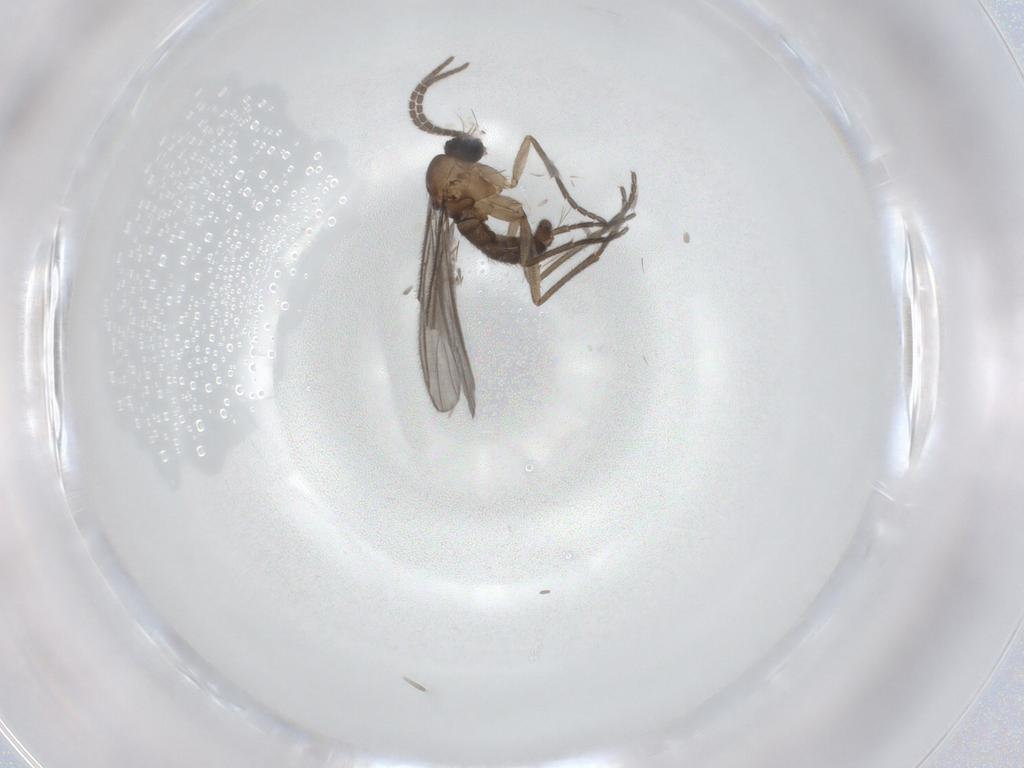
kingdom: Animalia
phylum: Arthropoda
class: Insecta
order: Diptera
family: Sciaridae
